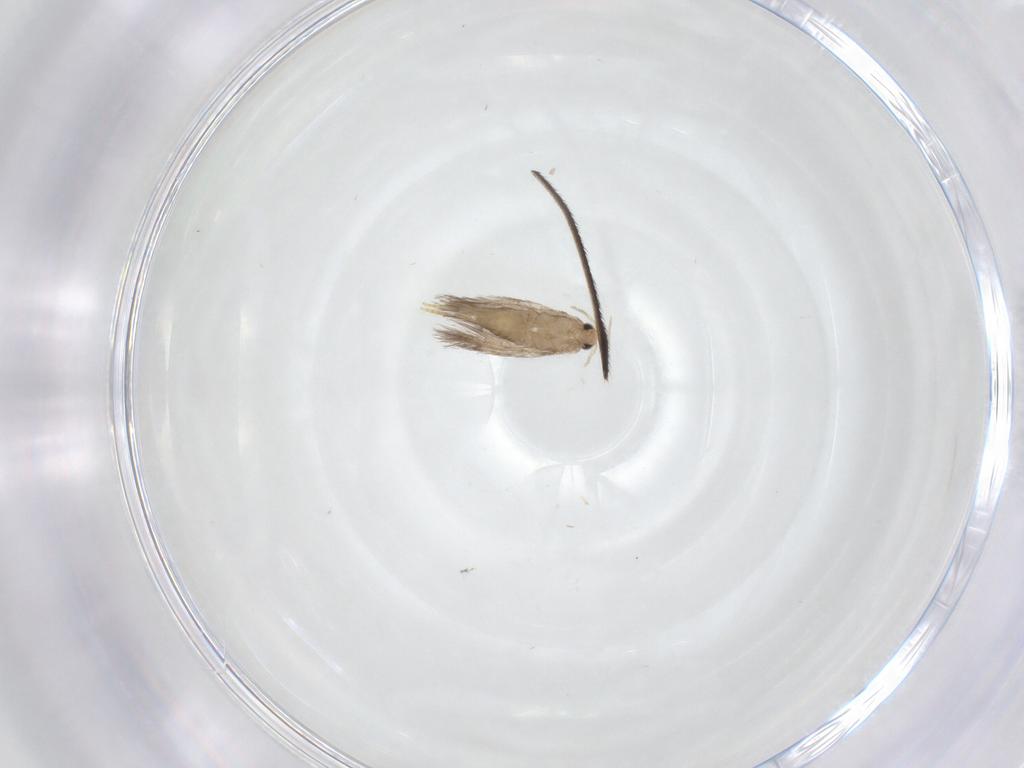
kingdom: Animalia
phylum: Arthropoda
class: Insecta
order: Lepidoptera
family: Nepticulidae
